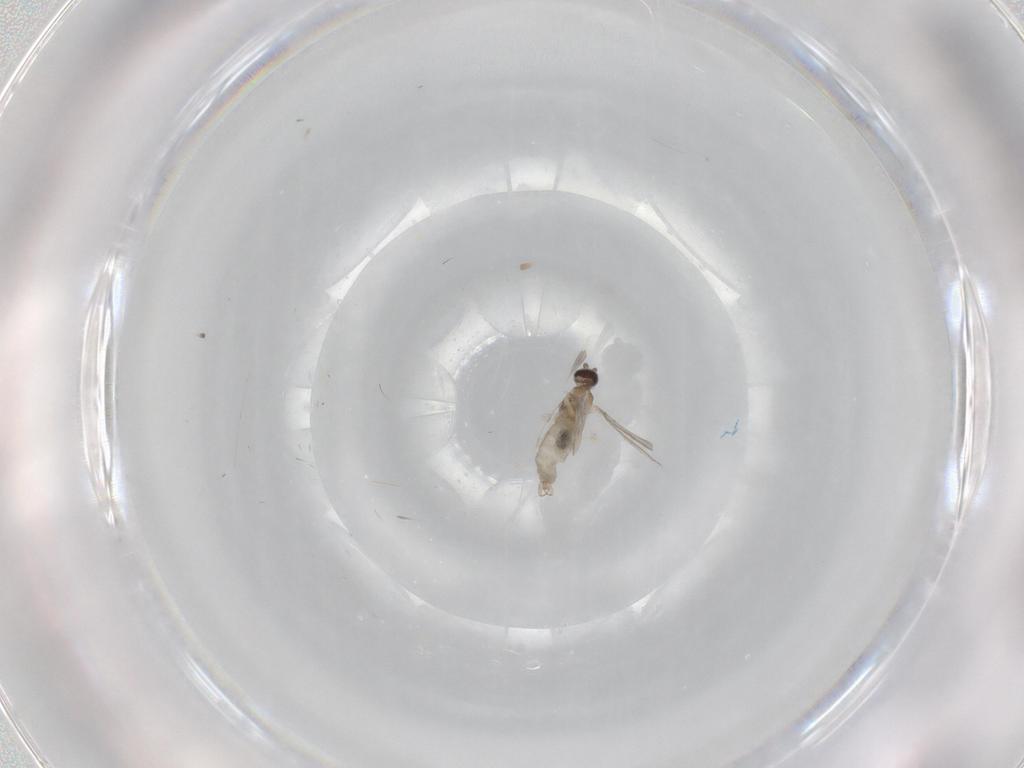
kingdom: Animalia
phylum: Arthropoda
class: Insecta
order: Diptera
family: Cecidomyiidae
